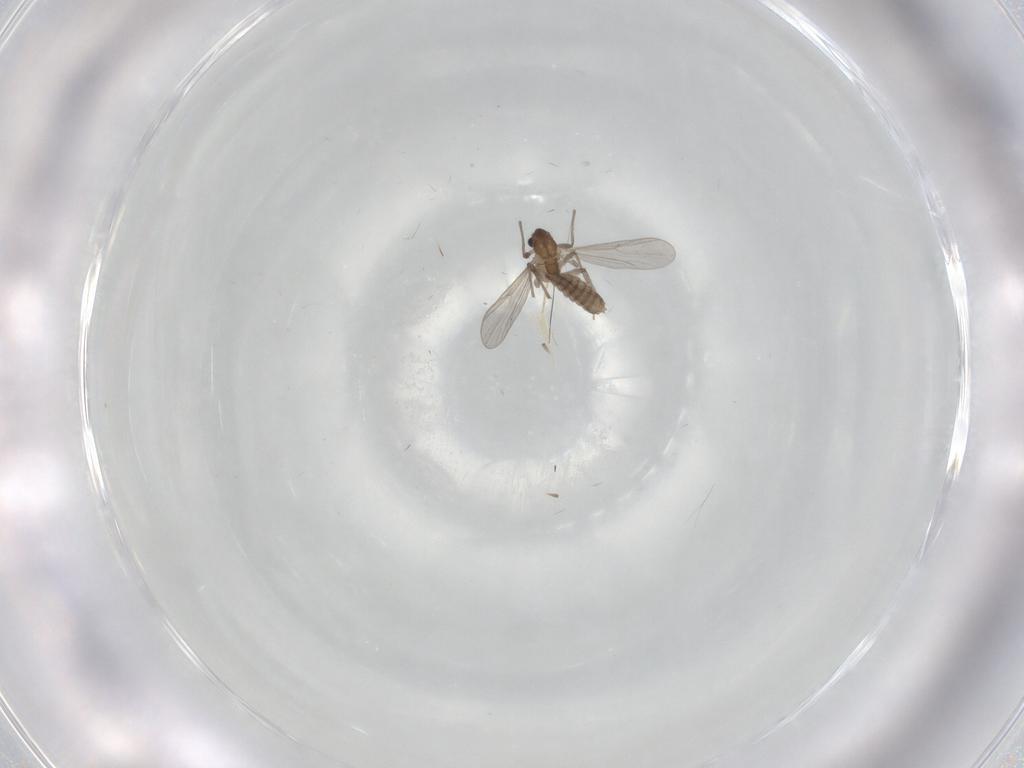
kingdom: Animalia
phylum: Arthropoda
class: Insecta
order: Diptera
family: Chironomidae
